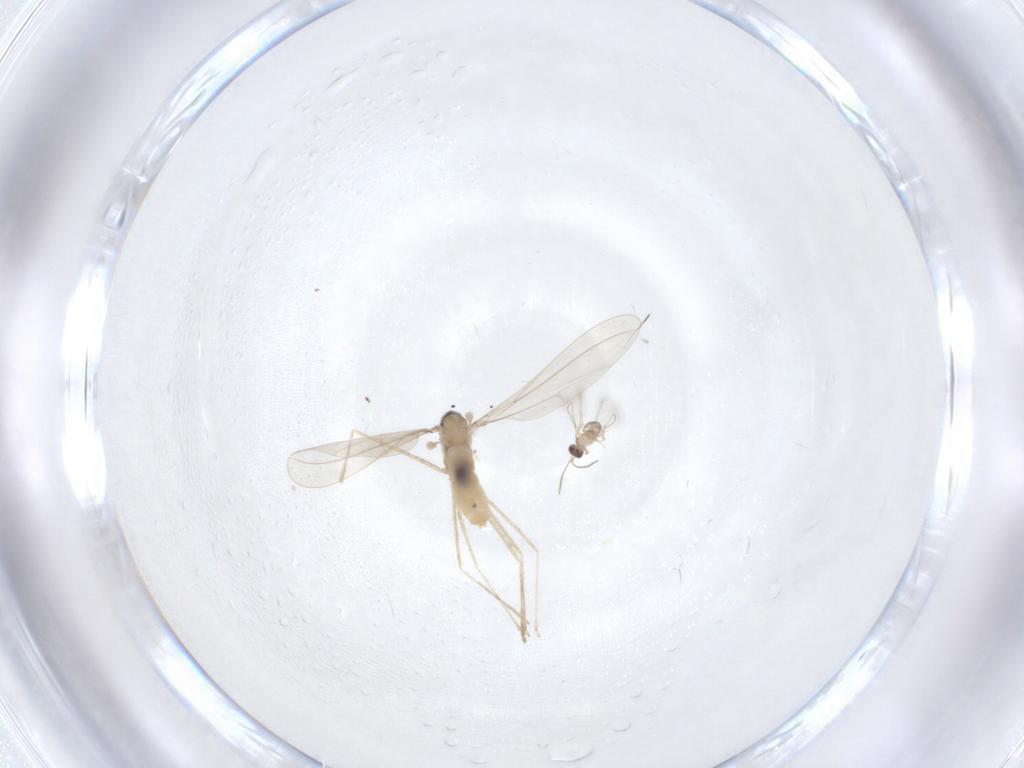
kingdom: Animalia
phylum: Arthropoda
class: Insecta
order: Diptera
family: Cecidomyiidae
